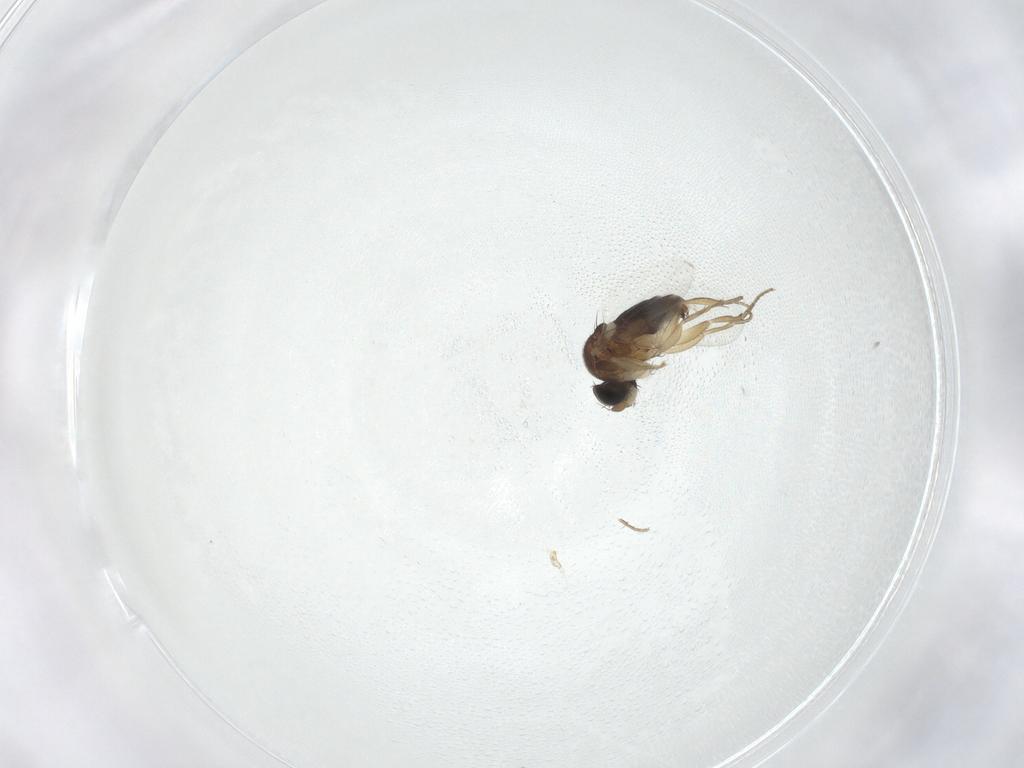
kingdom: Animalia
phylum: Arthropoda
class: Insecta
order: Diptera
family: Phoridae
